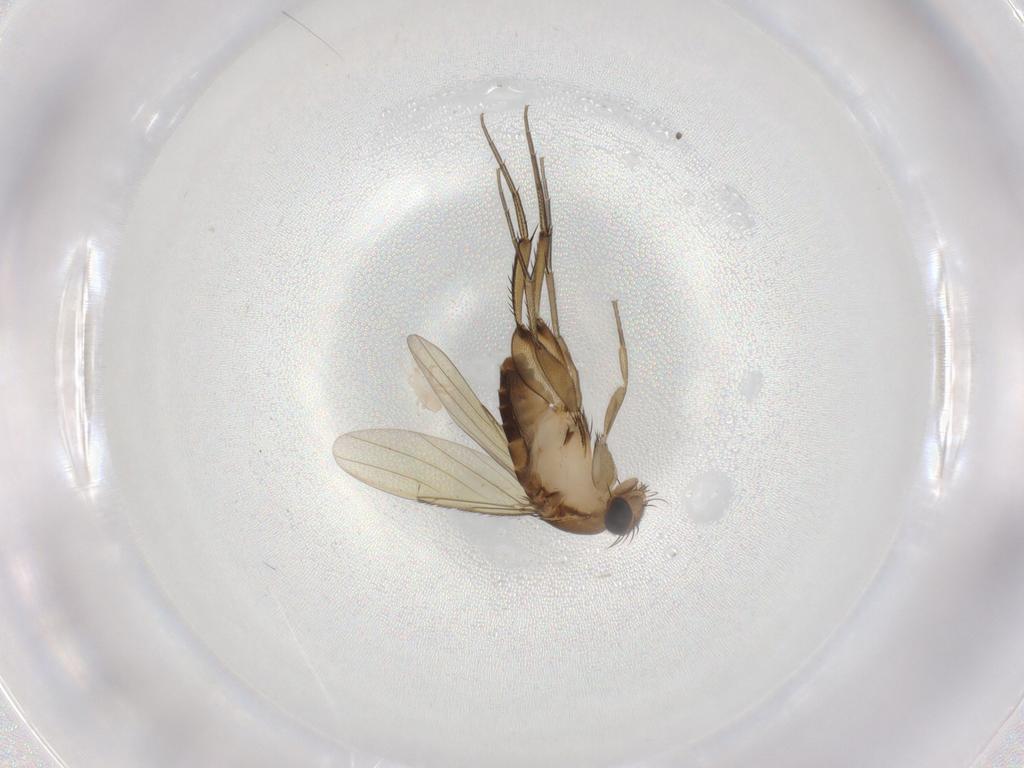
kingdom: Animalia
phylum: Arthropoda
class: Insecta
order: Diptera
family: Phoridae
